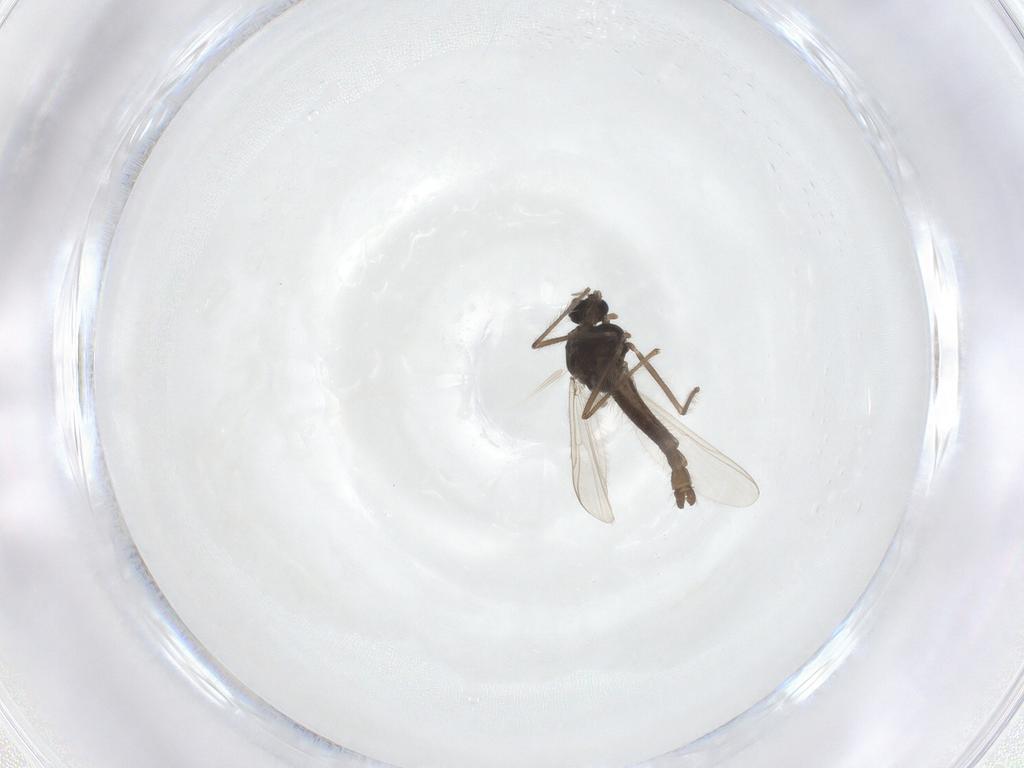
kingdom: Animalia
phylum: Arthropoda
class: Insecta
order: Diptera
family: Chironomidae
